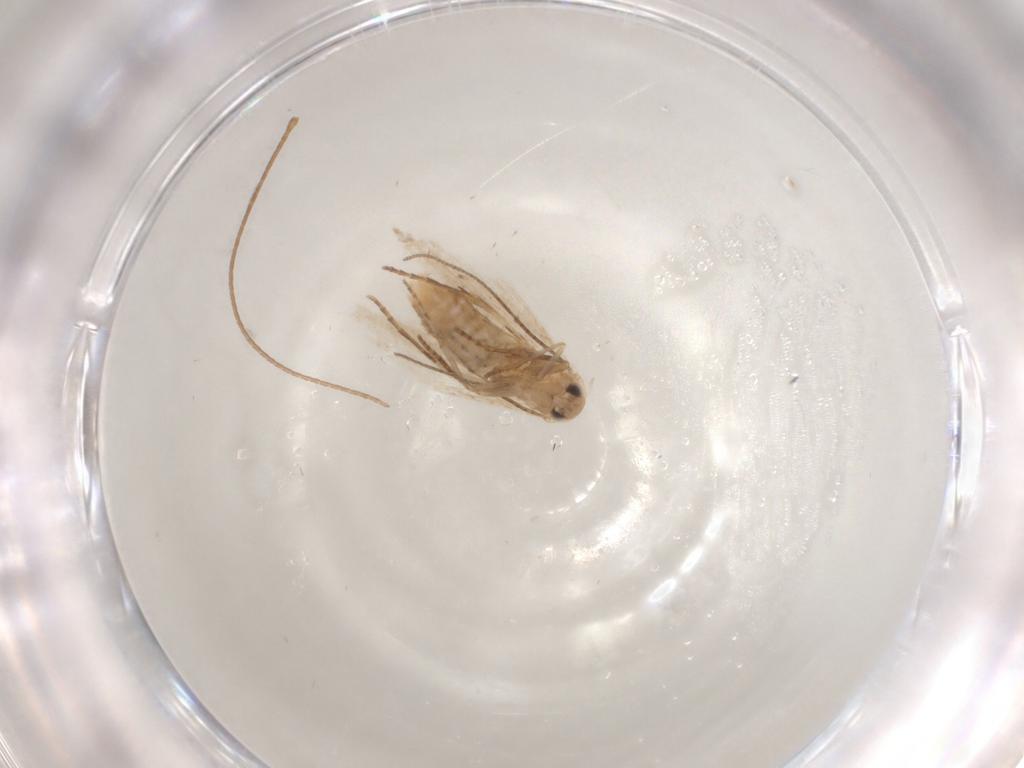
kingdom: Animalia
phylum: Arthropoda
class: Insecta
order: Lepidoptera
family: Bucculatricidae
